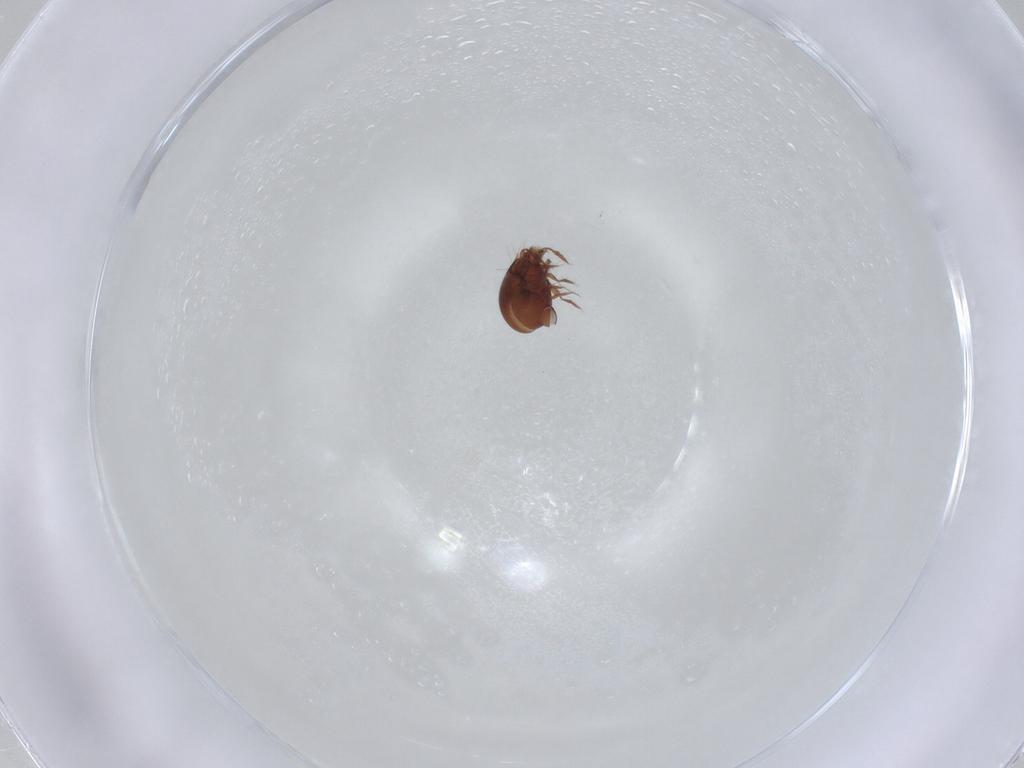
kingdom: Animalia
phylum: Arthropoda
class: Arachnida
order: Sarcoptiformes
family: Ceratozetidae
